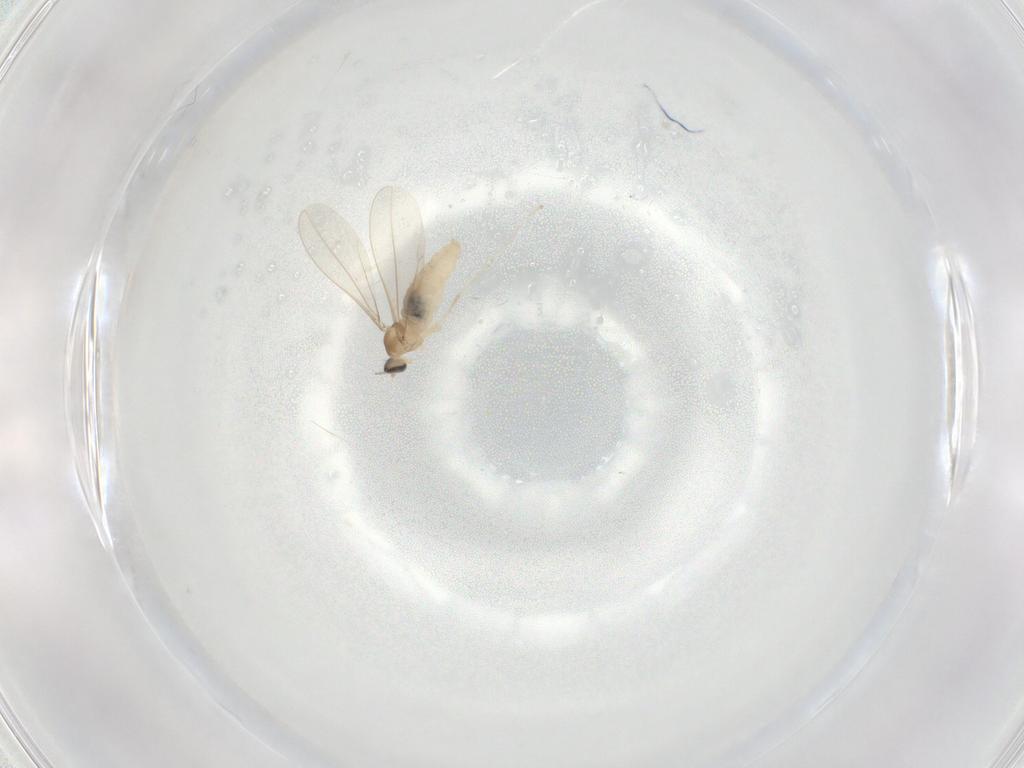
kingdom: Animalia
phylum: Arthropoda
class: Insecta
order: Diptera
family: Cecidomyiidae
